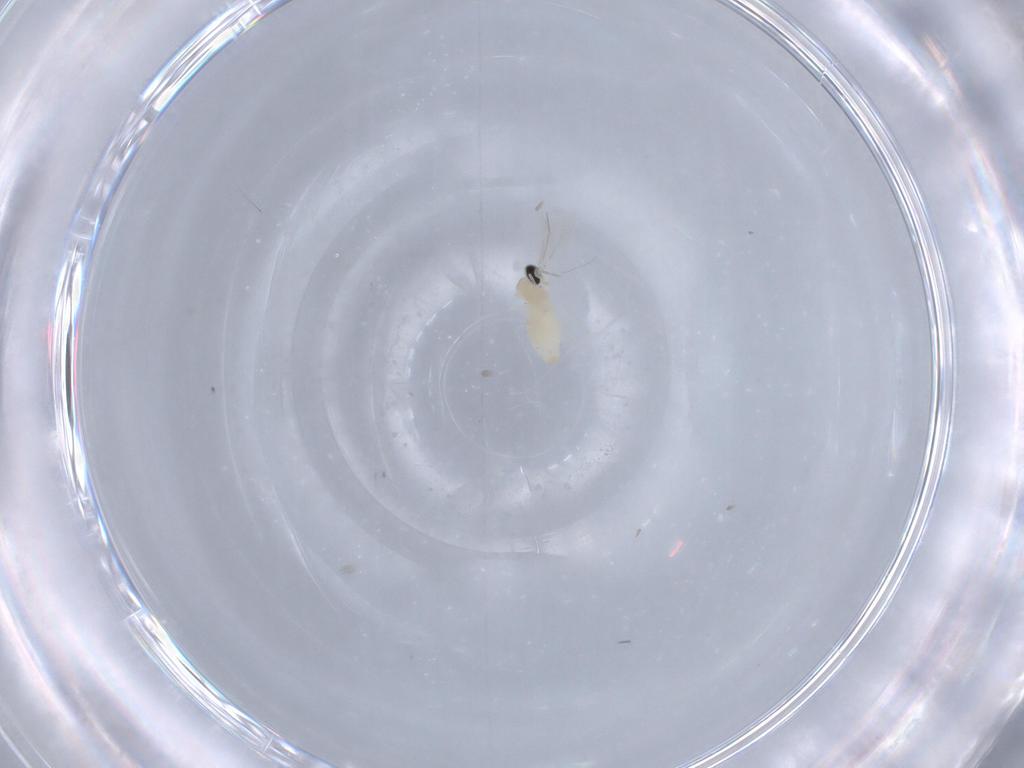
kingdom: Animalia
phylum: Arthropoda
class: Insecta
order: Diptera
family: Cecidomyiidae
